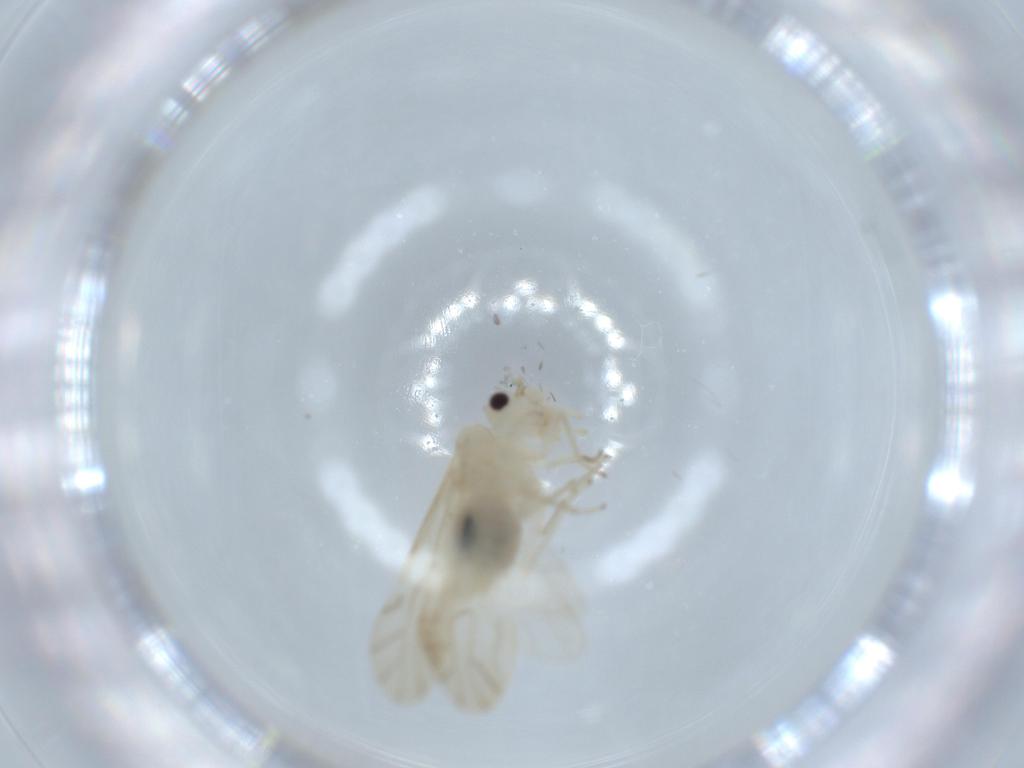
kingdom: Animalia
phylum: Arthropoda
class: Insecta
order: Psocodea
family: Caeciliusidae
